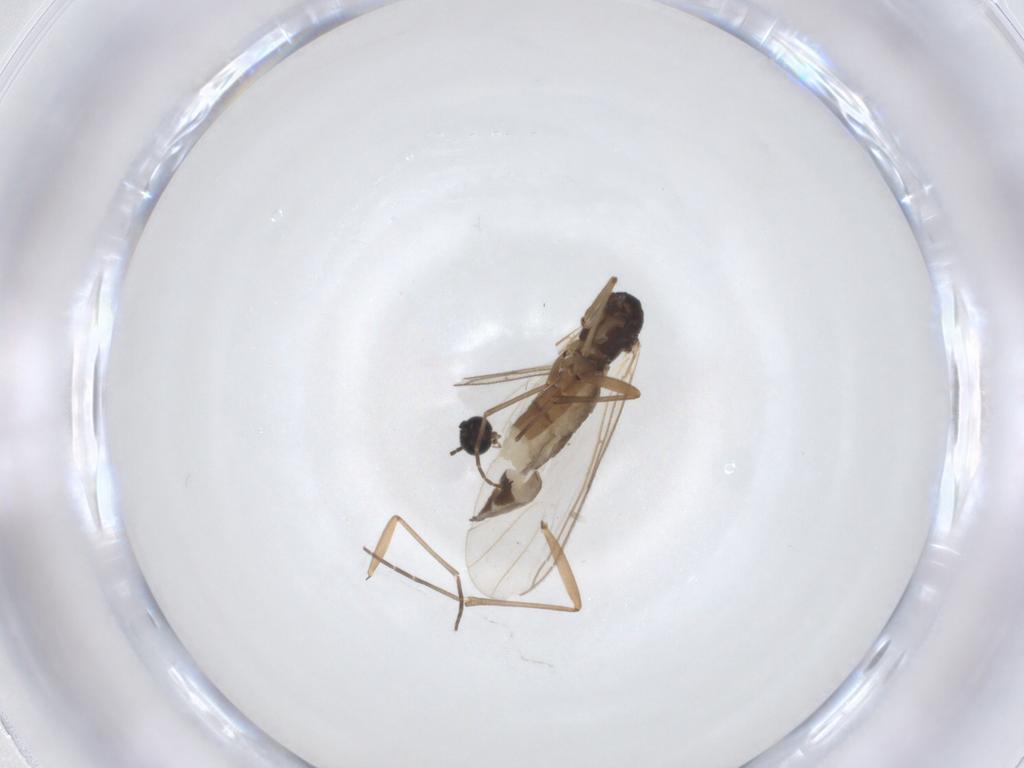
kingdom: Animalia
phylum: Arthropoda
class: Insecta
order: Diptera
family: Sciaridae
